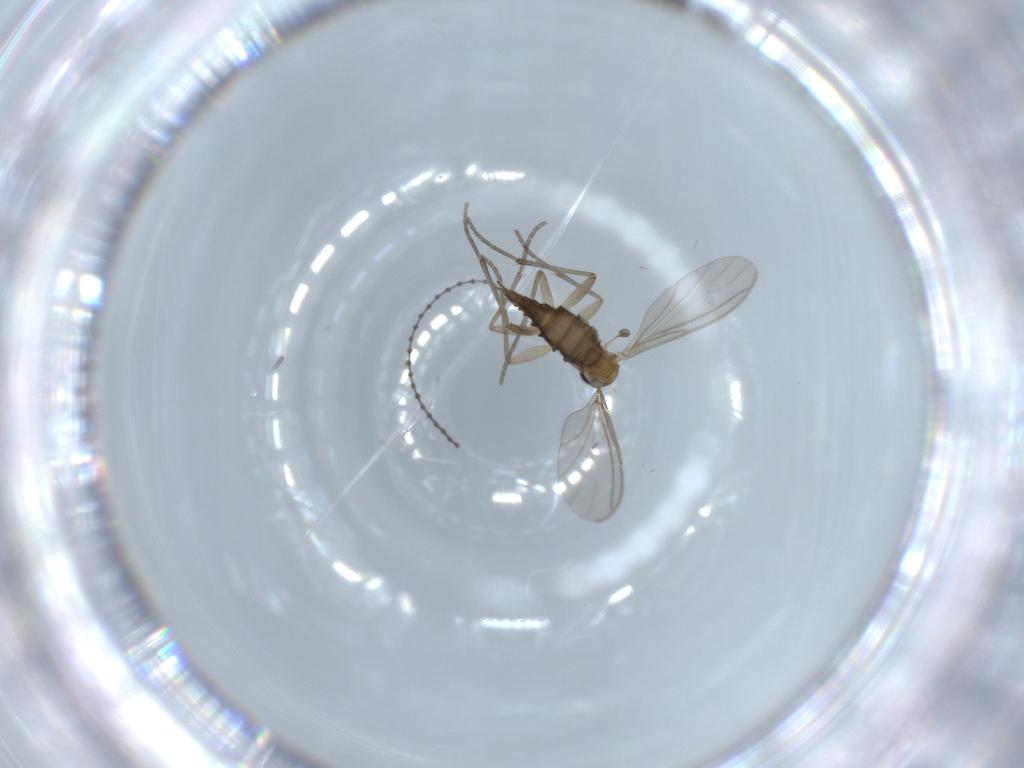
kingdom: Animalia
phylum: Arthropoda
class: Insecta
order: Diptera
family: Sciaridae
